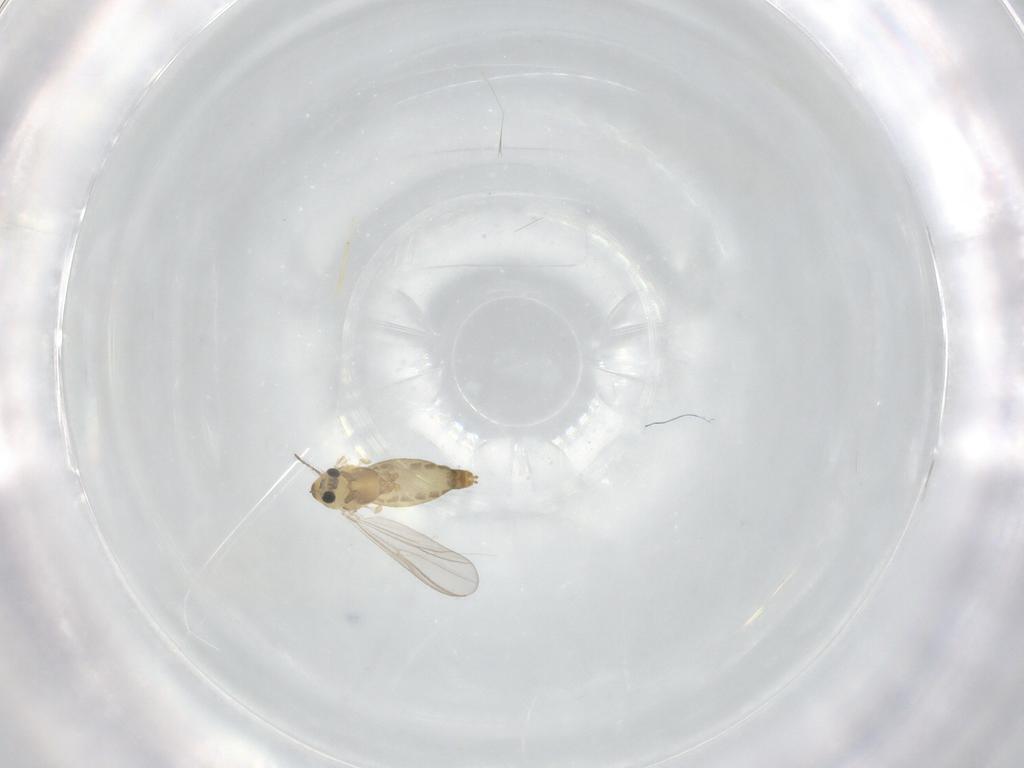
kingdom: Animalia
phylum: Arthropoda
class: Insecta
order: Diptera
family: Chironomidae
